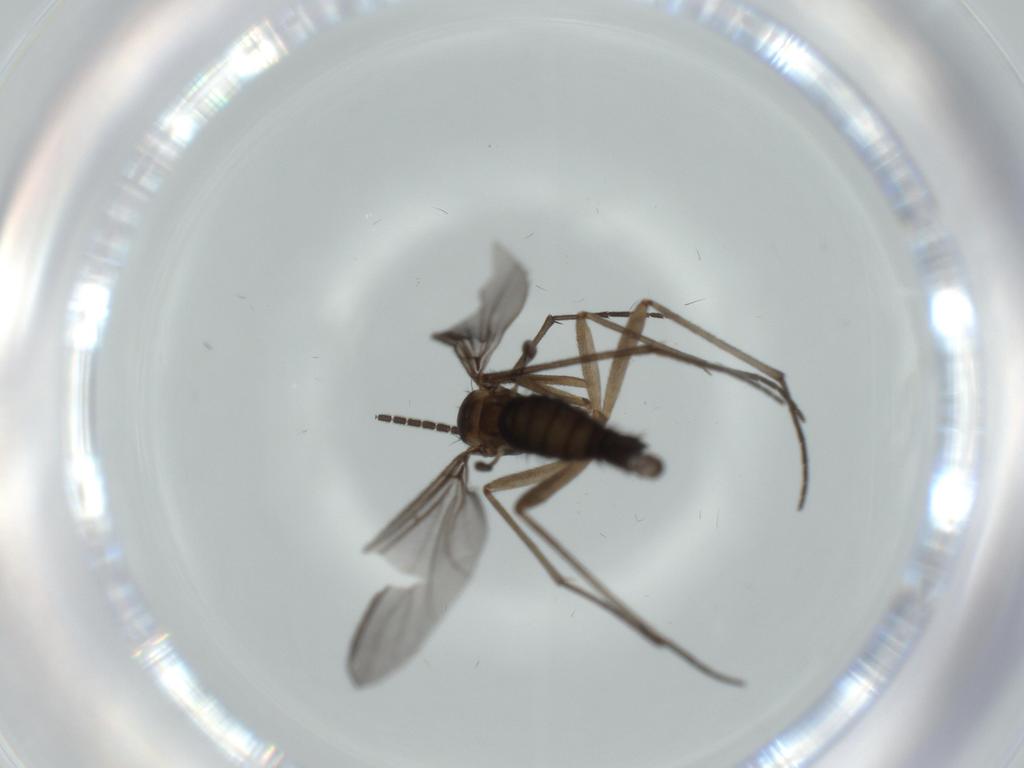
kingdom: Animalia
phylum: Arthropoda
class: Insecta
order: Diptera
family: Sciaridae
